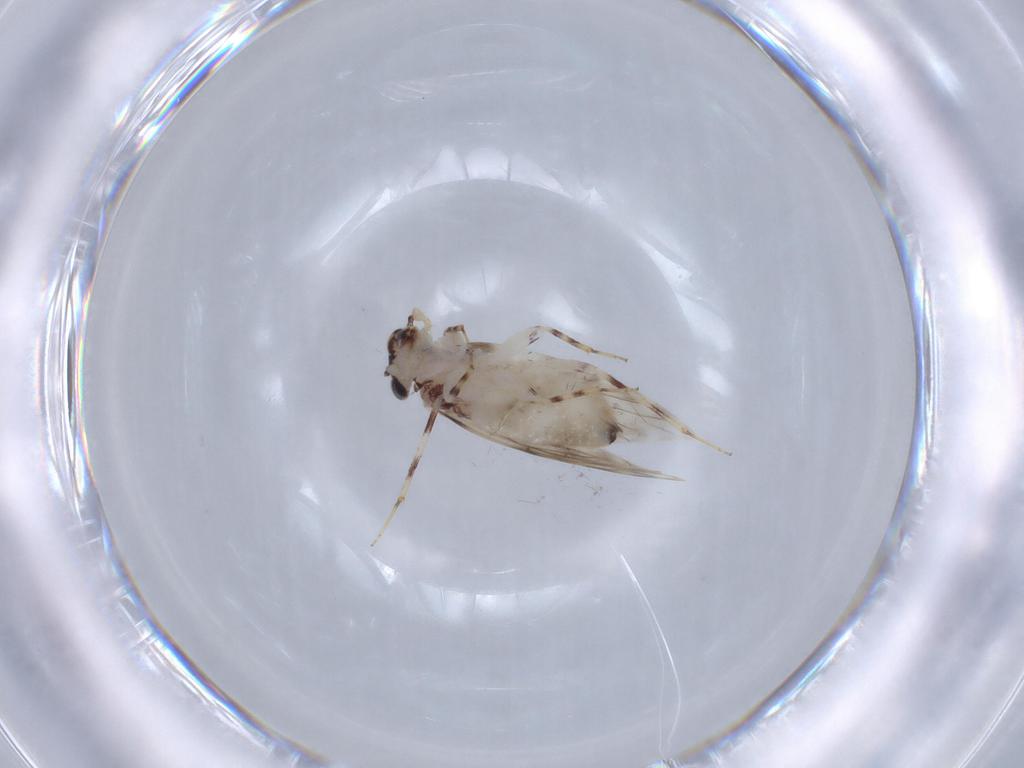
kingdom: Animalia
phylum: Arthropoda
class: Insecta
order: Psocodea
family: Lepidopsocidae
